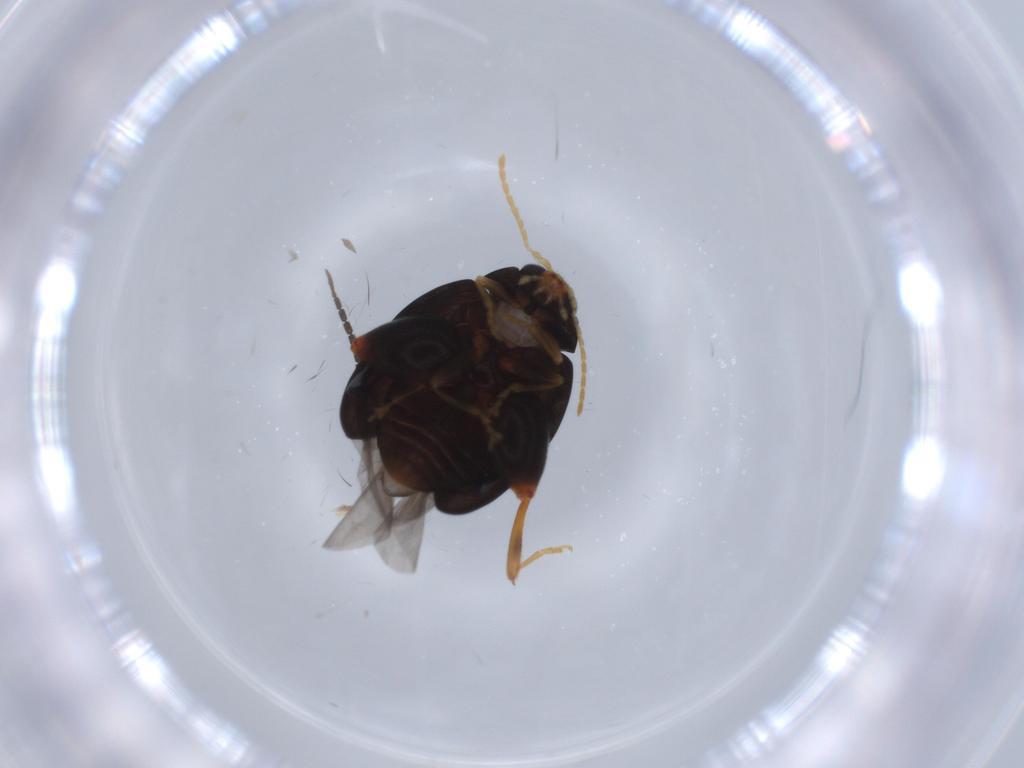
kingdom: Animalia
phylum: Arthropoda
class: Insecta
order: Coleoptera
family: Chrysomelidae
